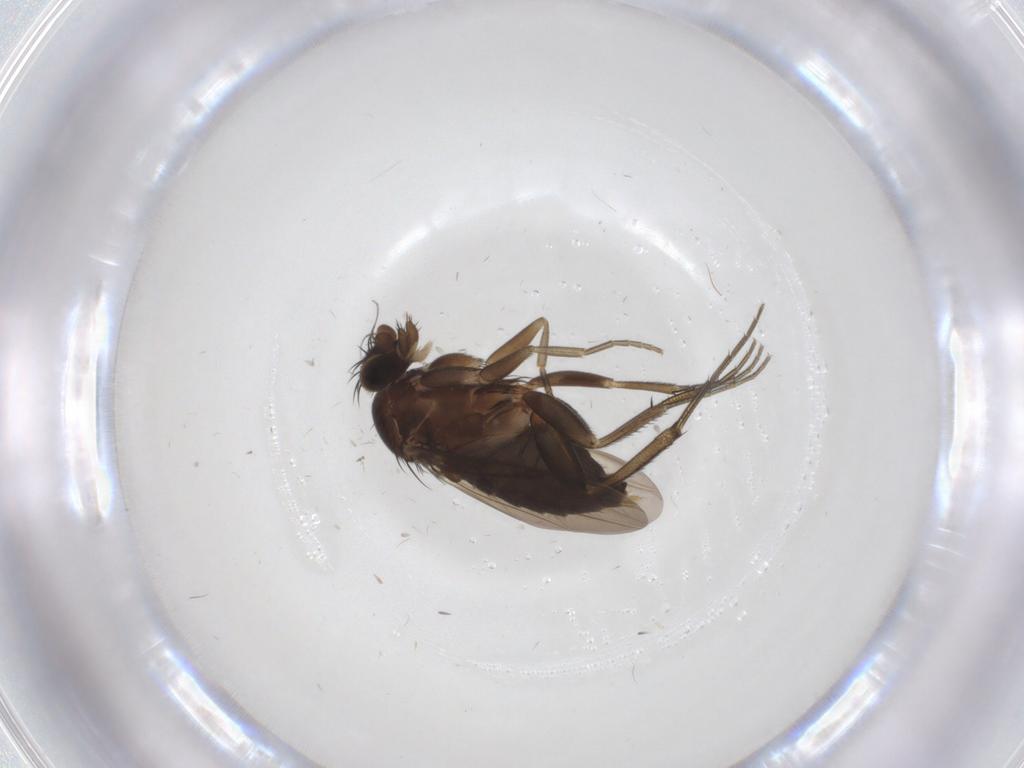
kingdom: Animalia
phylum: Arthropoda
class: Insecta
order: Diptera
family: Phoridae
